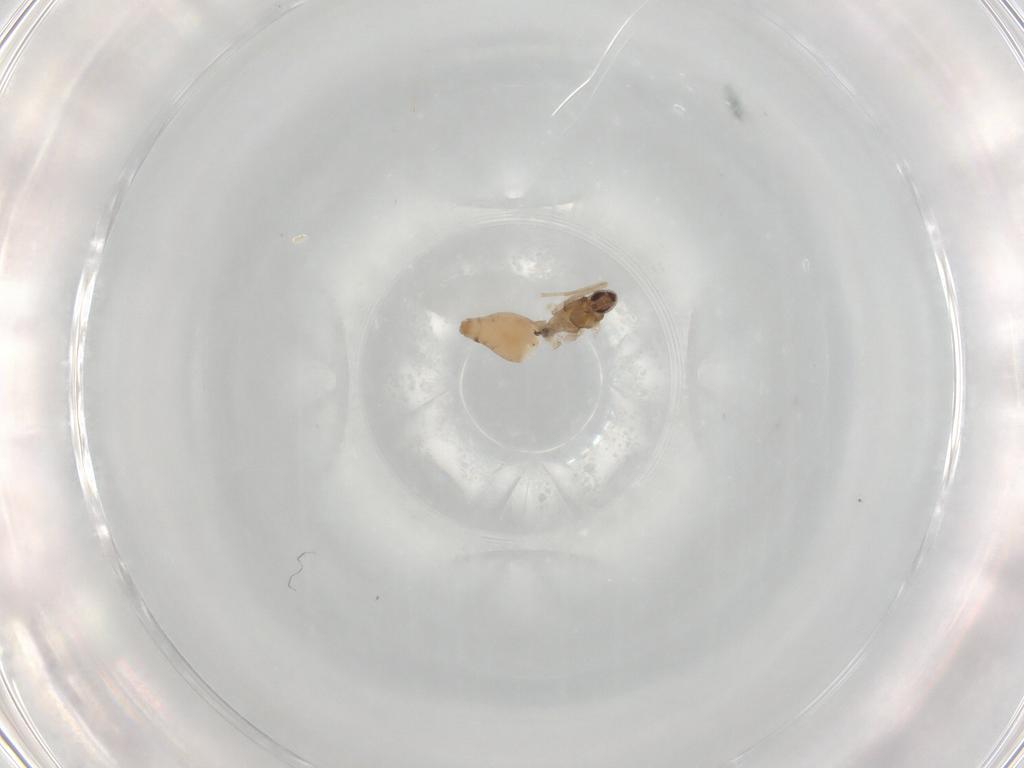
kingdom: Animalia
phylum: Arthropoda
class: Insecta
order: Diptera
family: Cecidomyiidae
